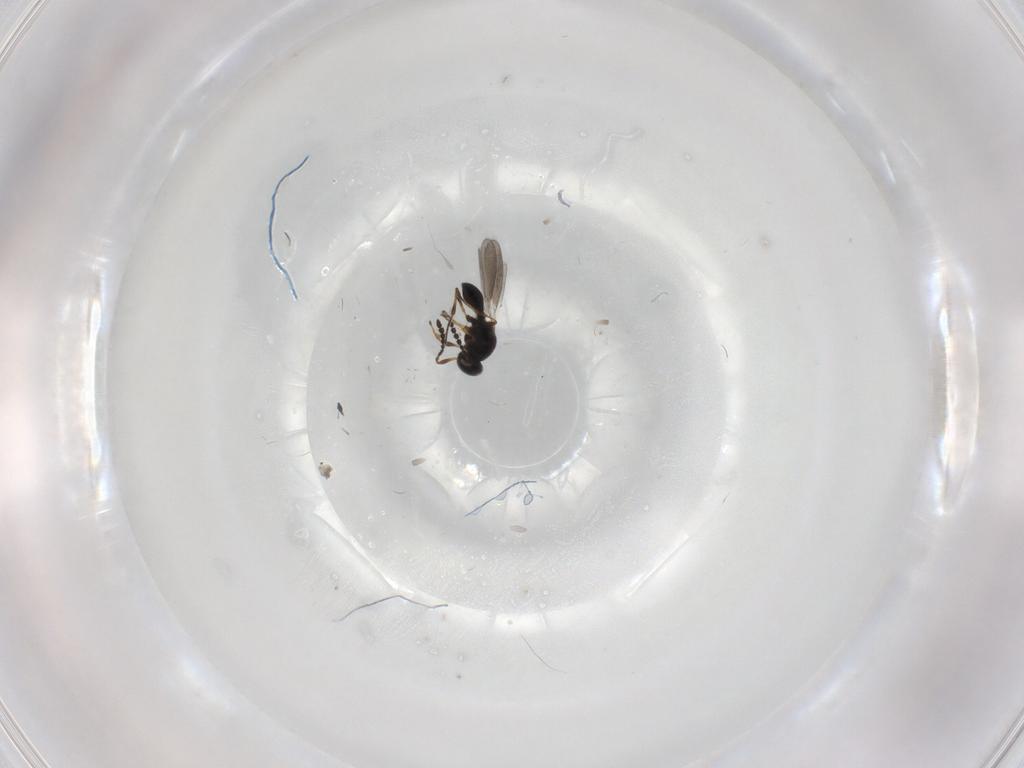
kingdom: Animalia
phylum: Arthropoda
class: Insecta
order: Hymenoptera
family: Platygastridae
